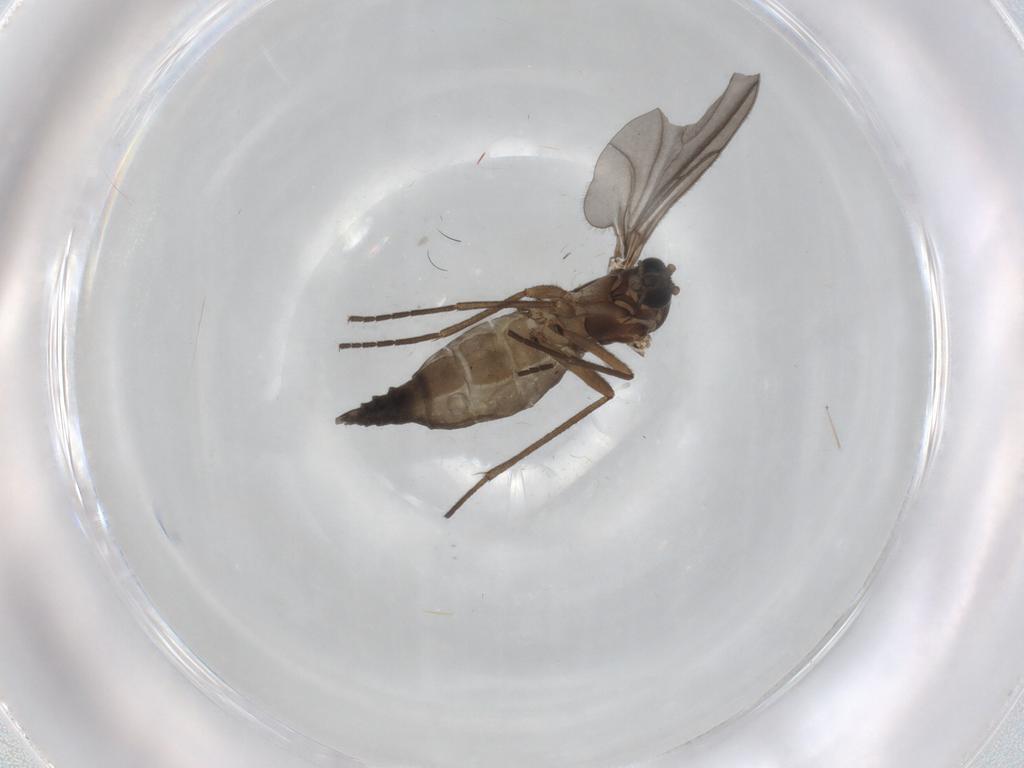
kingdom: Animalia
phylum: Arthropoda
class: Insecta
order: Diptera
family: Sciaridae
